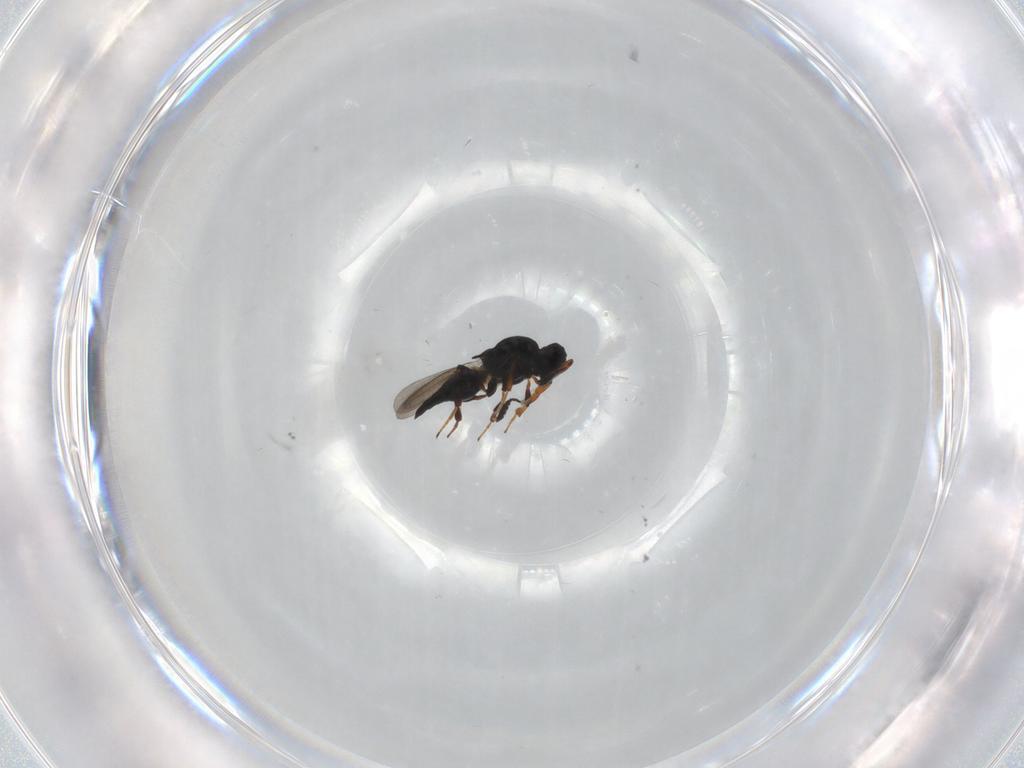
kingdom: Animalia
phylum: Arthropoda
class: Insecta
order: Hymenoptera
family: Platygastridae
